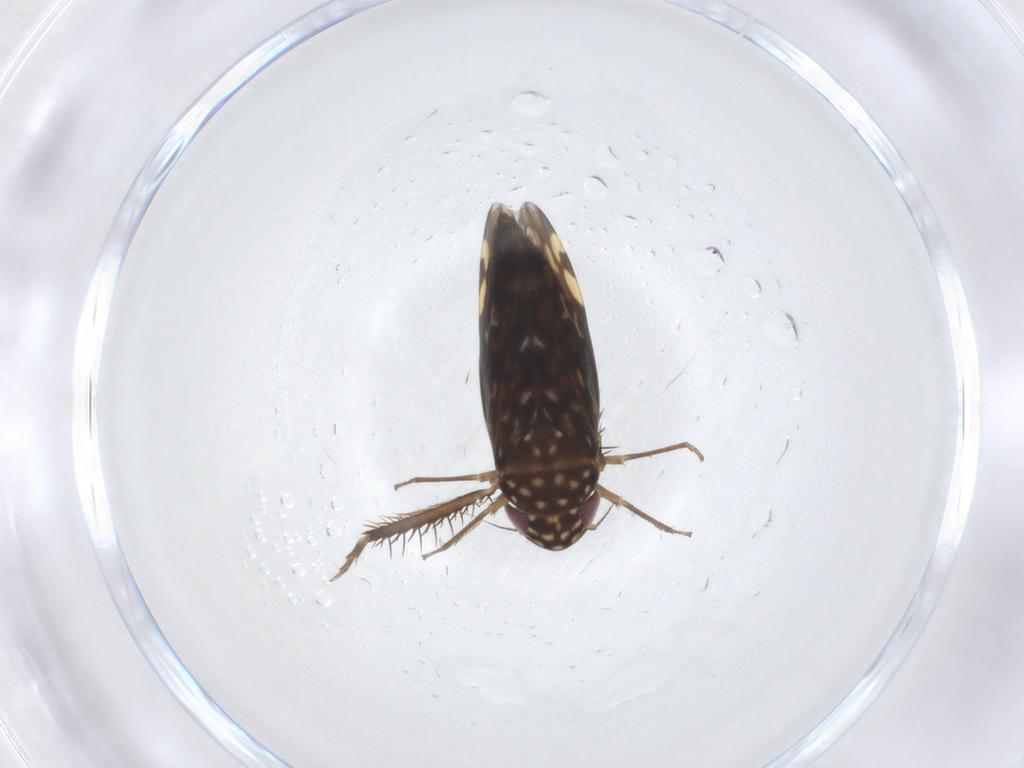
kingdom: Animalia
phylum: Arthropoda
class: Insecta
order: Hemiptera
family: Cicadellidae
